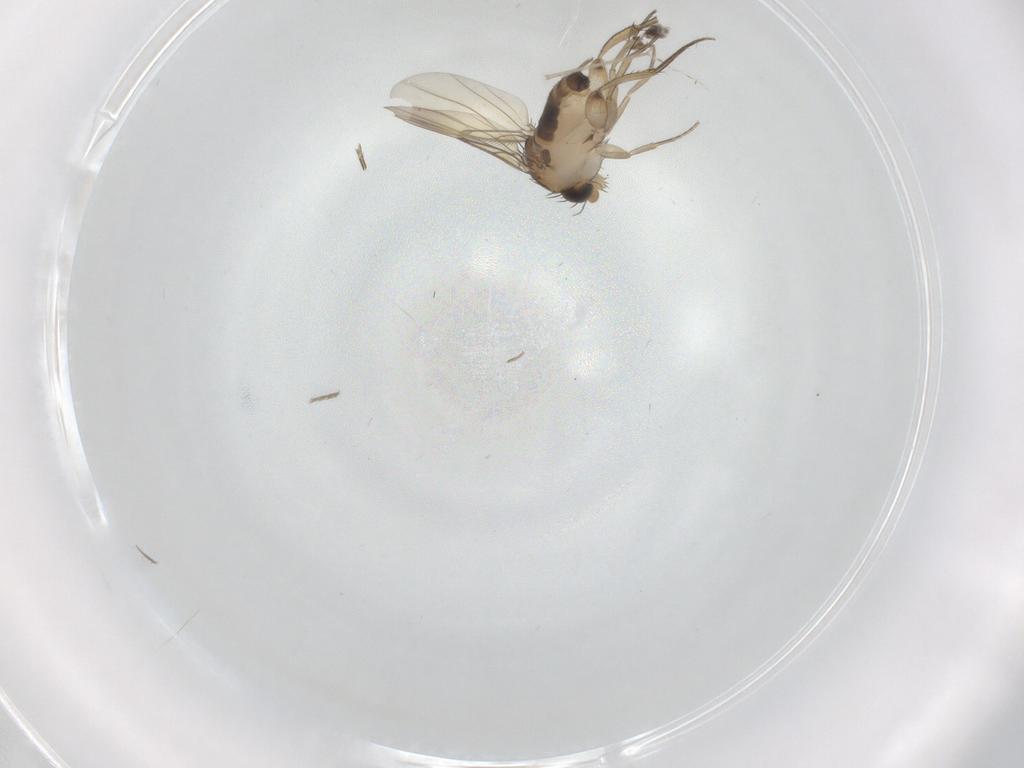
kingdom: Animalia
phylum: Arthropoda
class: Insecta
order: Diptera
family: Phoridae
